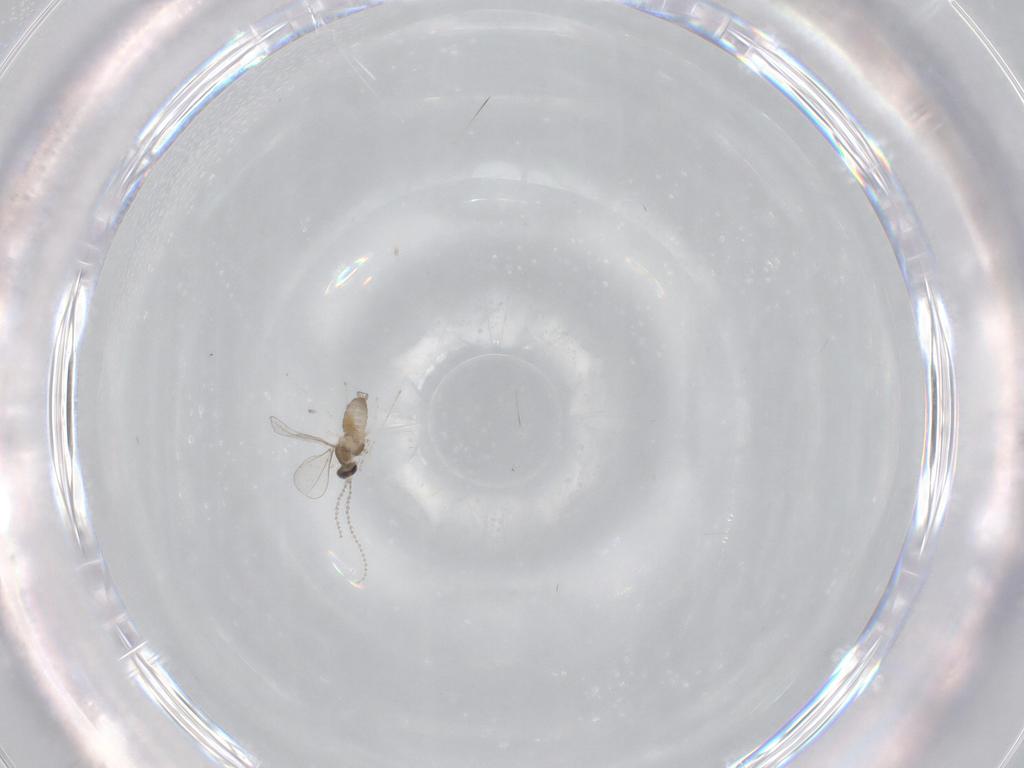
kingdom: Animalia
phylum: Arthropoda
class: Insecta
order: Diptera
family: Cecidomyiidae
